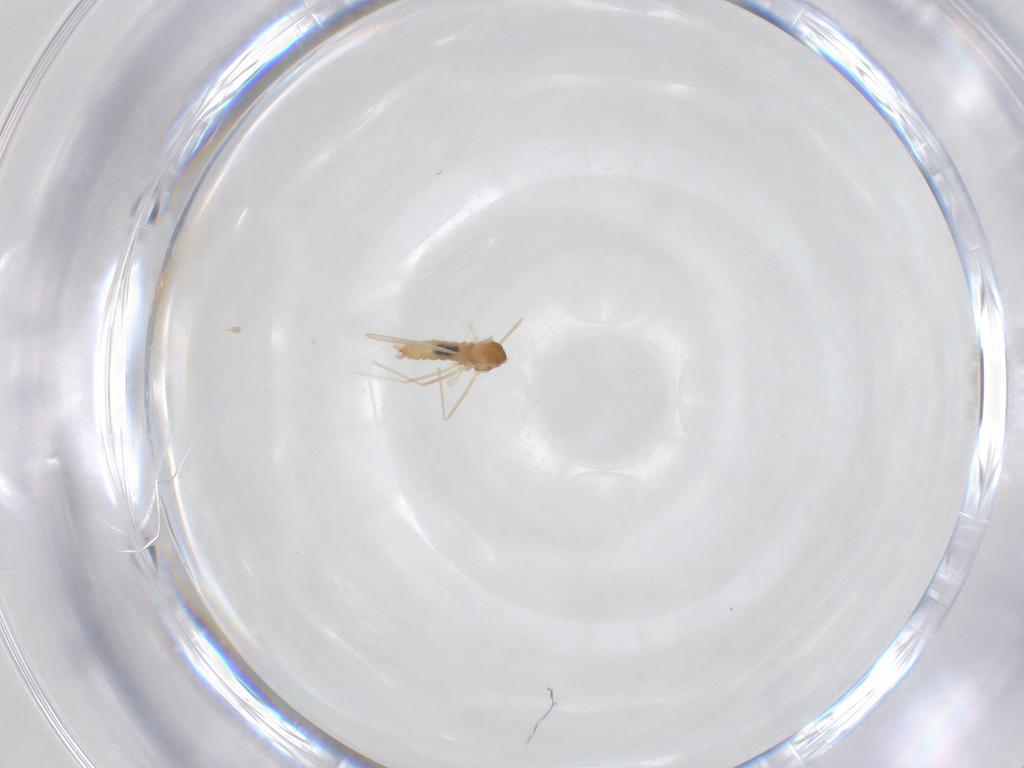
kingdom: Animalia
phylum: Arthropoda
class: Insecta
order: Diptera
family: Cecidomyiidae
